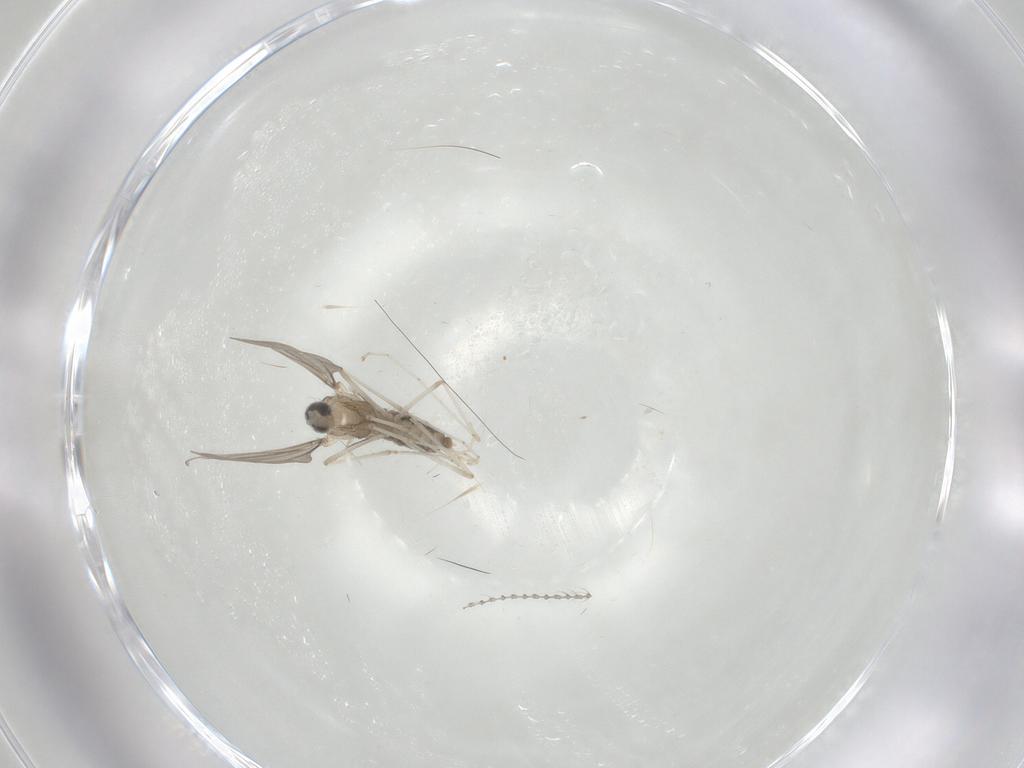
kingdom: Animalia
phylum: Arthropoda
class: Insecta
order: Diptera
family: Cecidomyiidae
